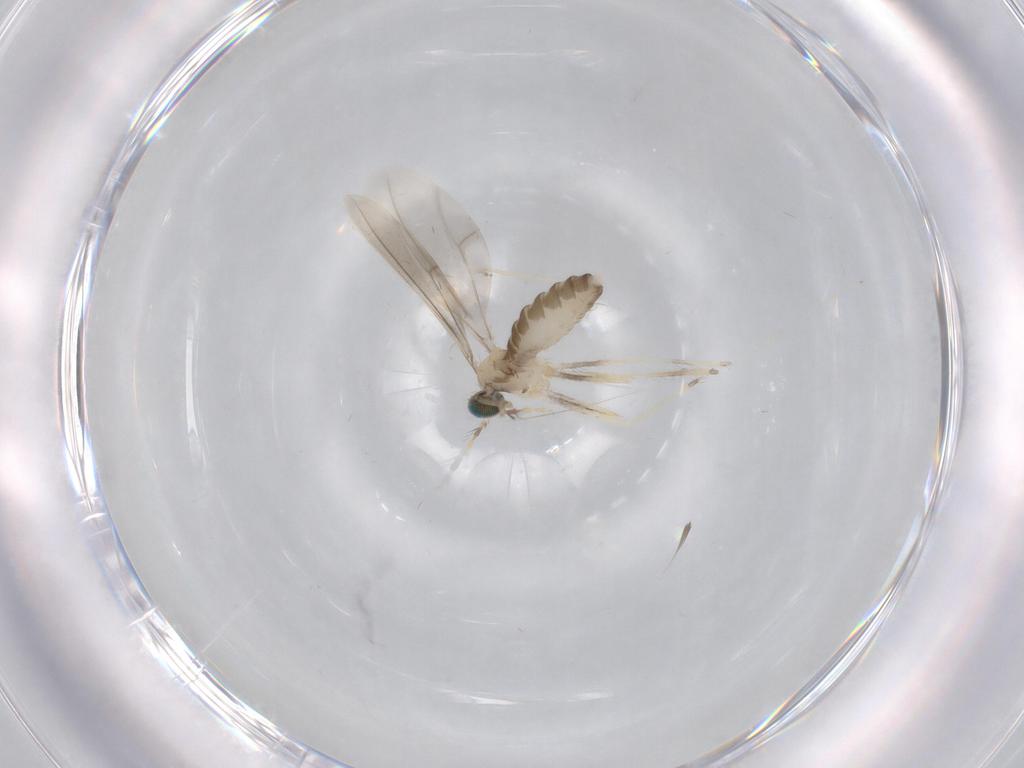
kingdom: Animalia
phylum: Arthropoda
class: Insecta
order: Diptera
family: Cecidomyiidae
